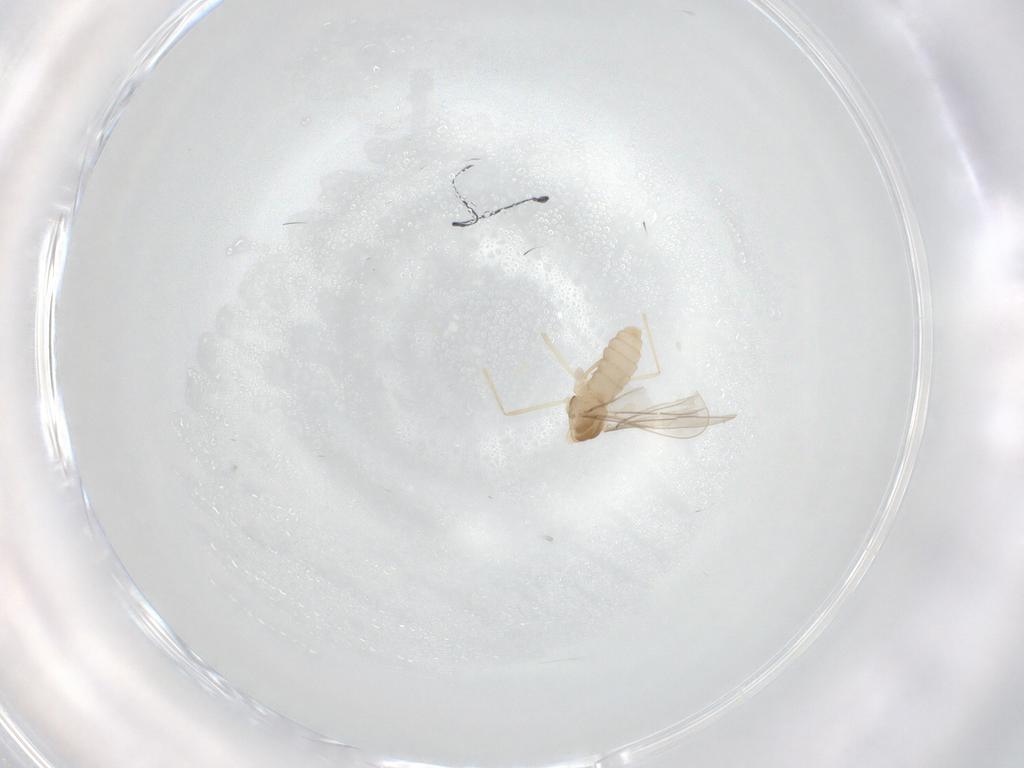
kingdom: Animalia
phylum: Arthropoda
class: Insecta
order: Diptera
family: Cecidomyiidae
